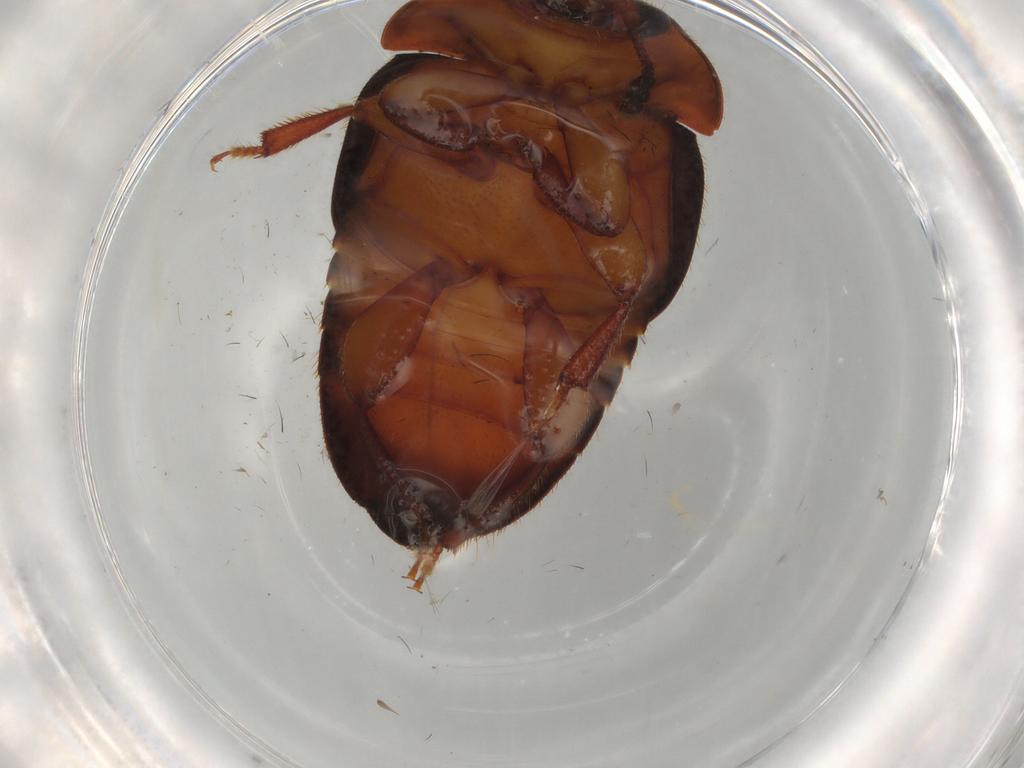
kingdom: Animalia
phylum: Arthropoda
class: Insecta
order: Coleoptera
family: Nitidulidae
